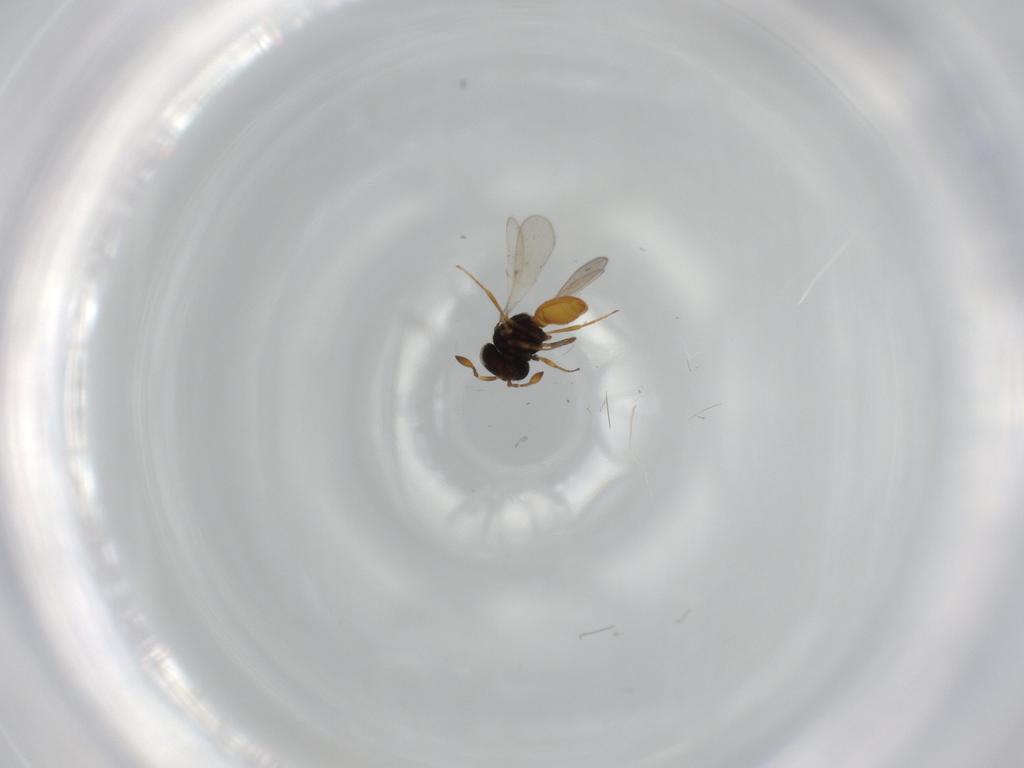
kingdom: Animalia
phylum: Arthropoda
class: Insecta
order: Hymenoptera
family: Scelionidae
